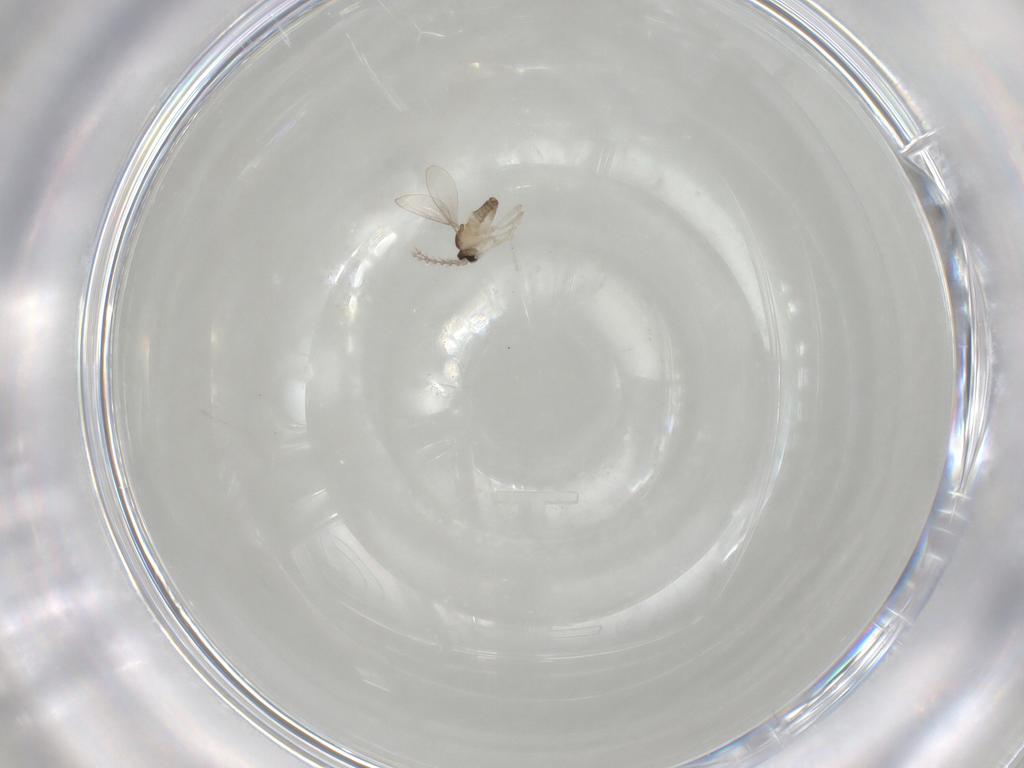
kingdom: Animalia
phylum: Arthropoda
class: Insecta
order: Diptera
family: Cecidomyiidae
